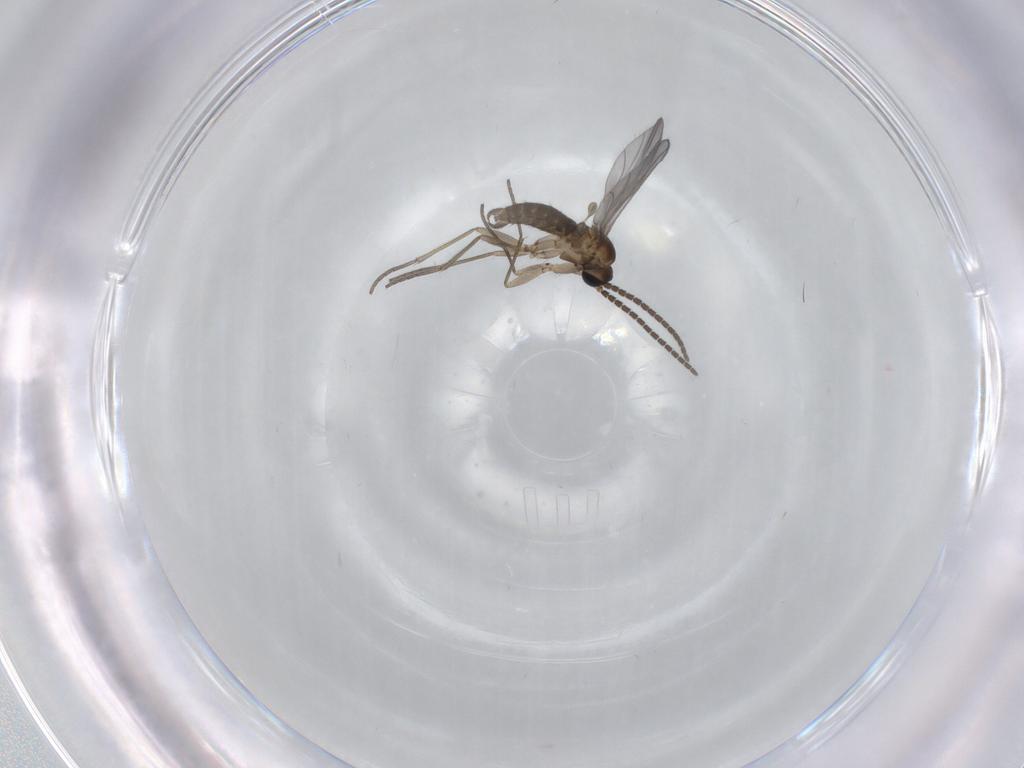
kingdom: Animalia
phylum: Arthropoda
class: Insecta
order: Diptera
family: Sciaridae
